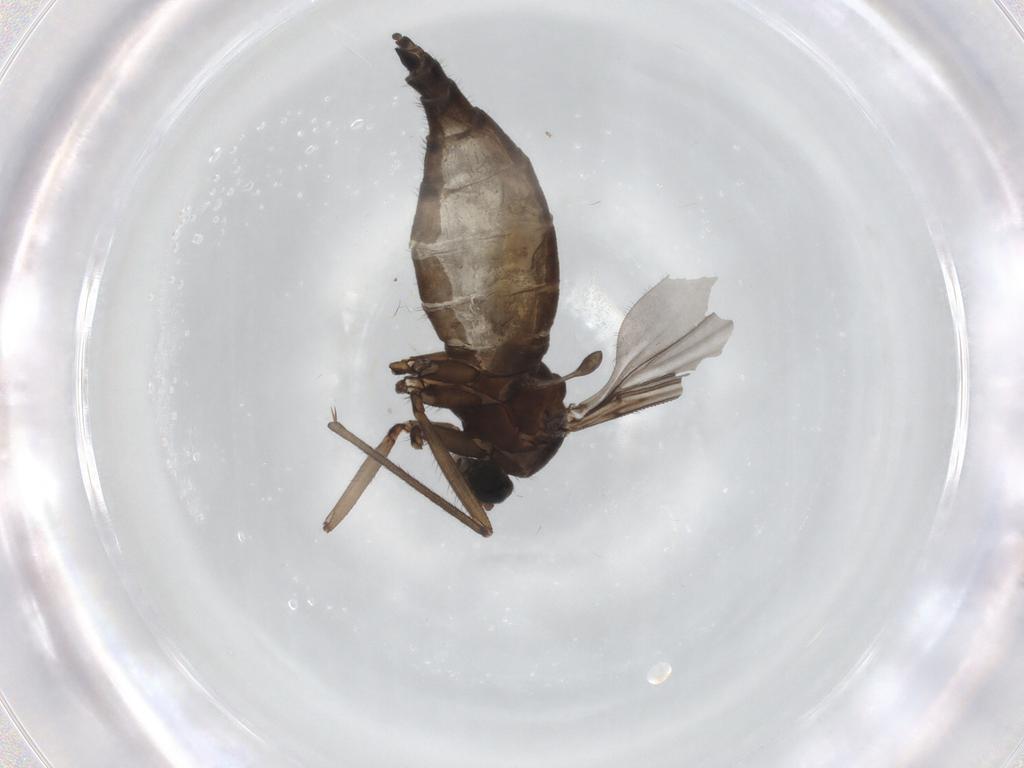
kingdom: Animalia
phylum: Arthropoda
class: Insecta
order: Diptera
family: Sciaridae
